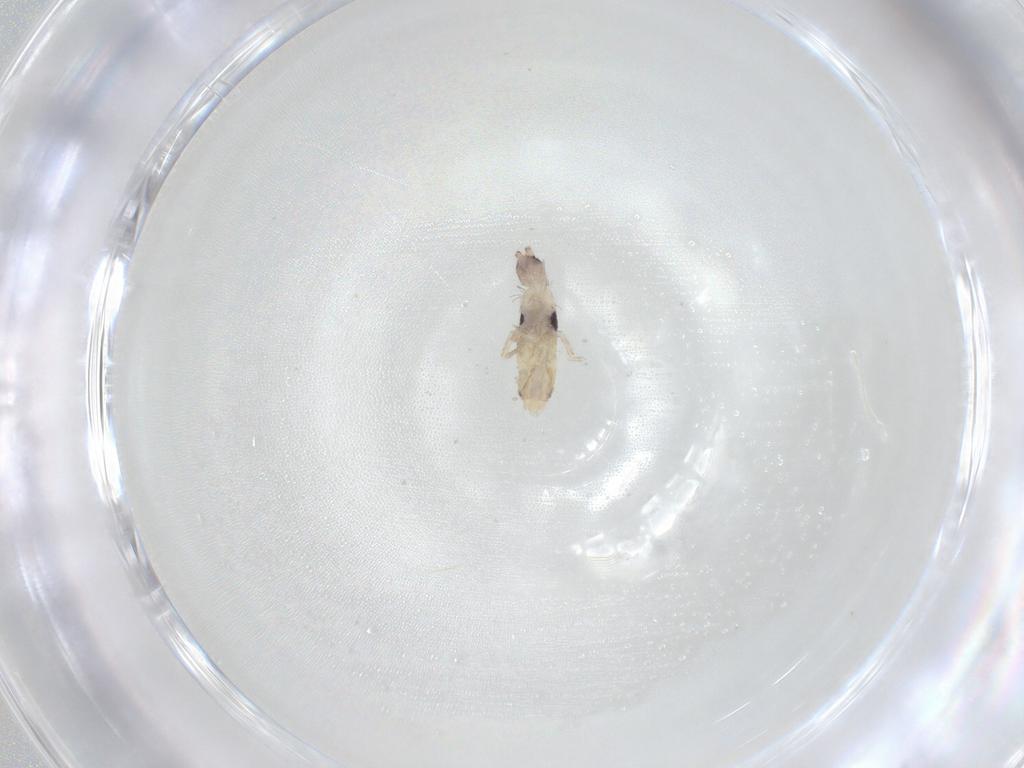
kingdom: Animalia
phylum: Arthropoda
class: Collembola
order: Entomobryomorpha
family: Entomobryidae
